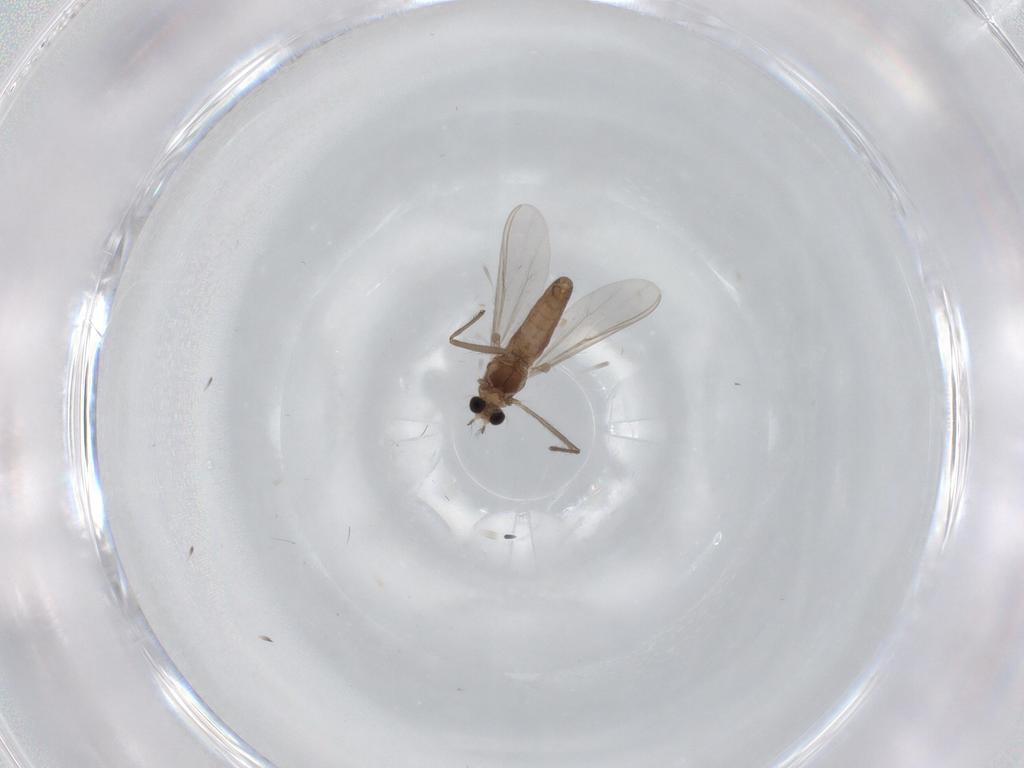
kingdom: Animalia
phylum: Arthropoda
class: Insecta
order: Diptera
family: Chironomidae
